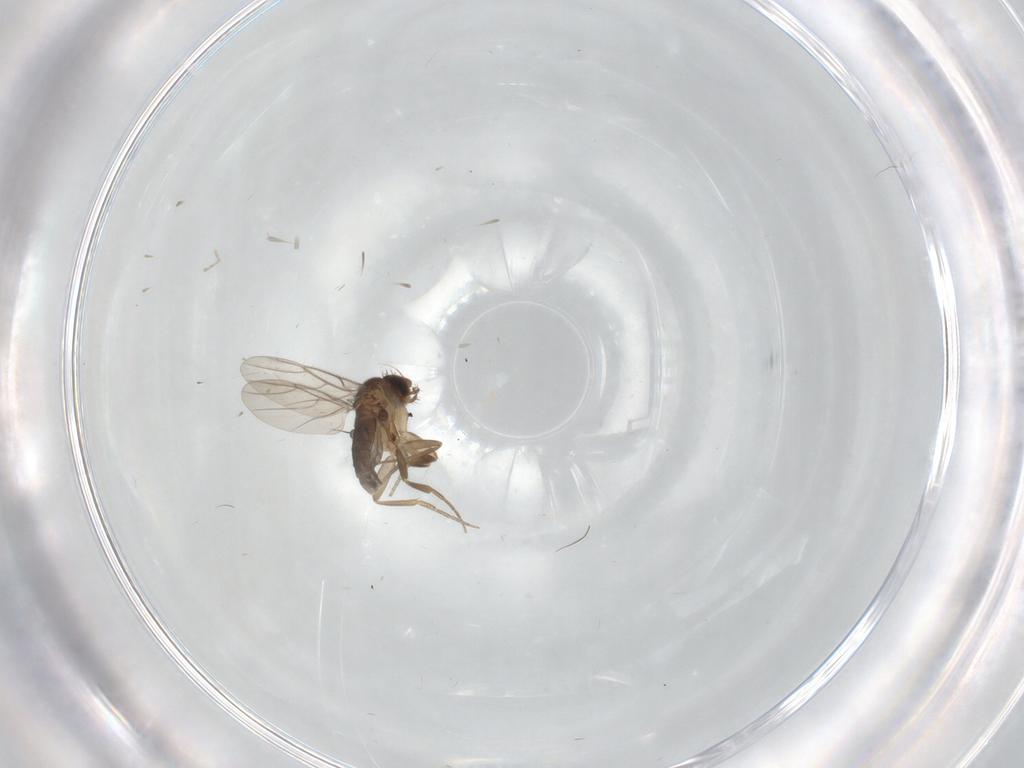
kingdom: Animalia
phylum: Arthropoda
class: Insecta
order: Diptera
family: Phoridae
